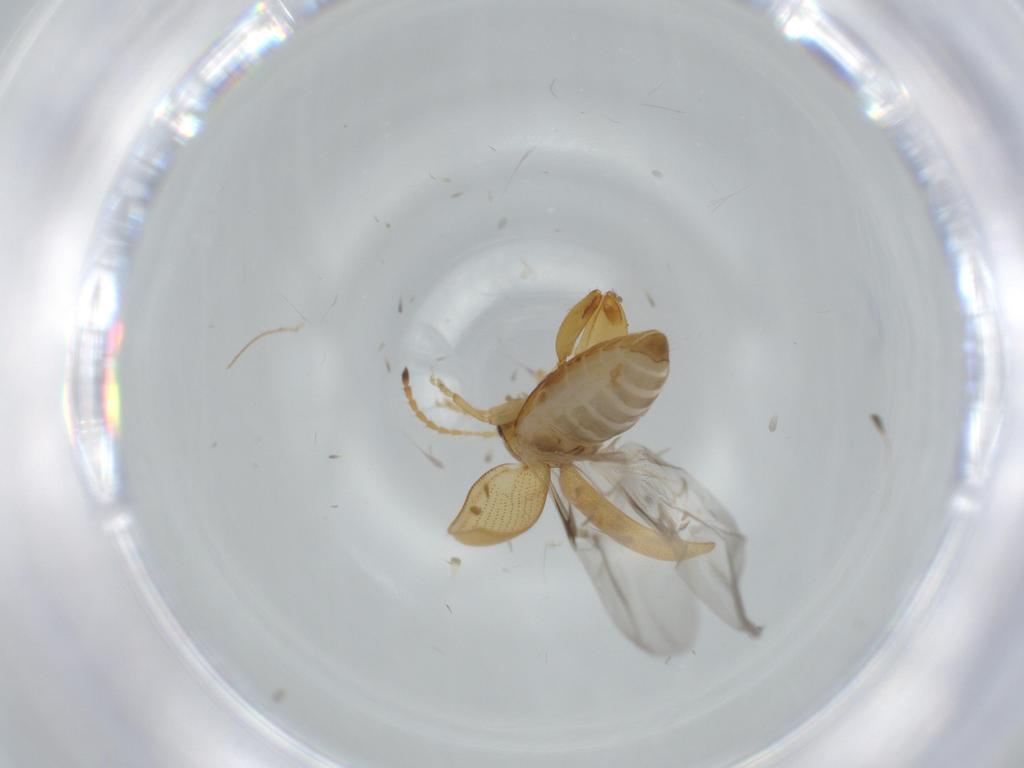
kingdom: Animalia
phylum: Arthropoda
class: Insecta
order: Coleoptera
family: Chrysomelidae
